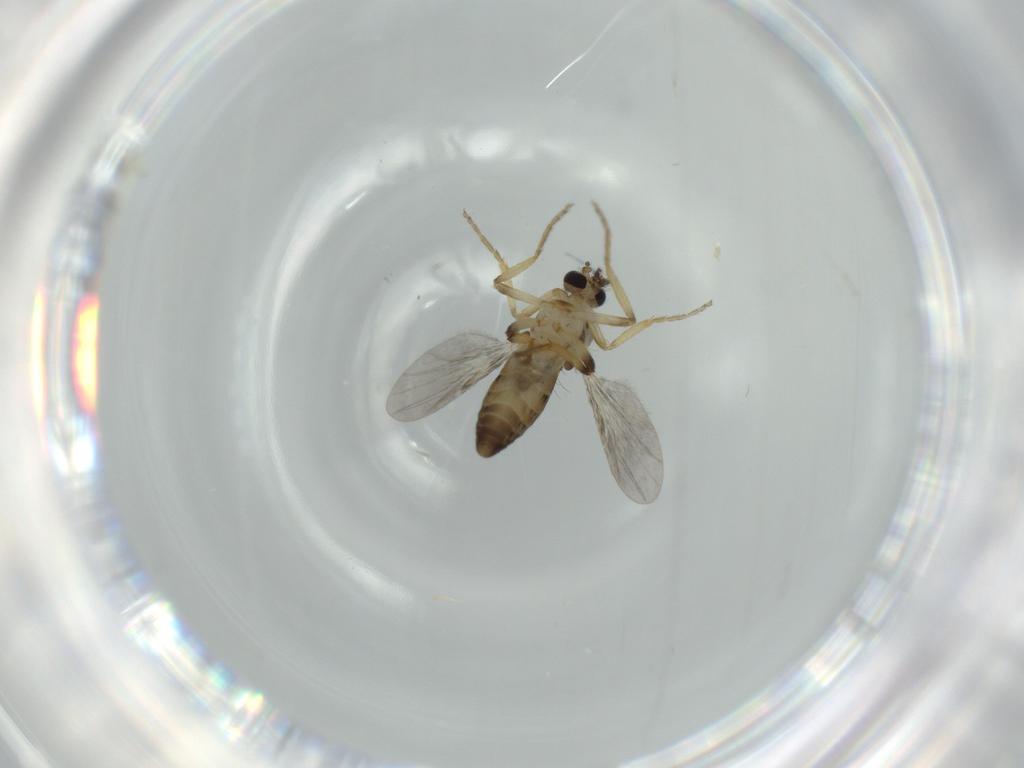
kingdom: Animalia
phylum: Arthropoda
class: Insecta
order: Diptera
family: Ceratopogonidae
